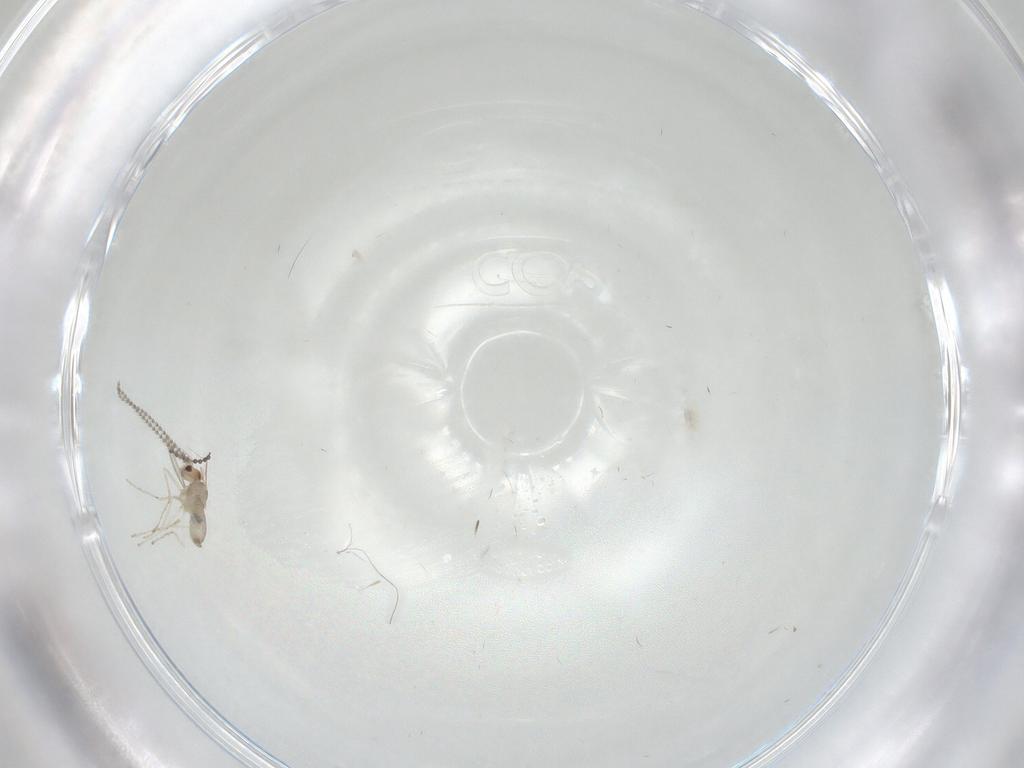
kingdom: Animalia
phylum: Arthropoda
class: Insecta
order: Diptera
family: Cecidomyiidae
